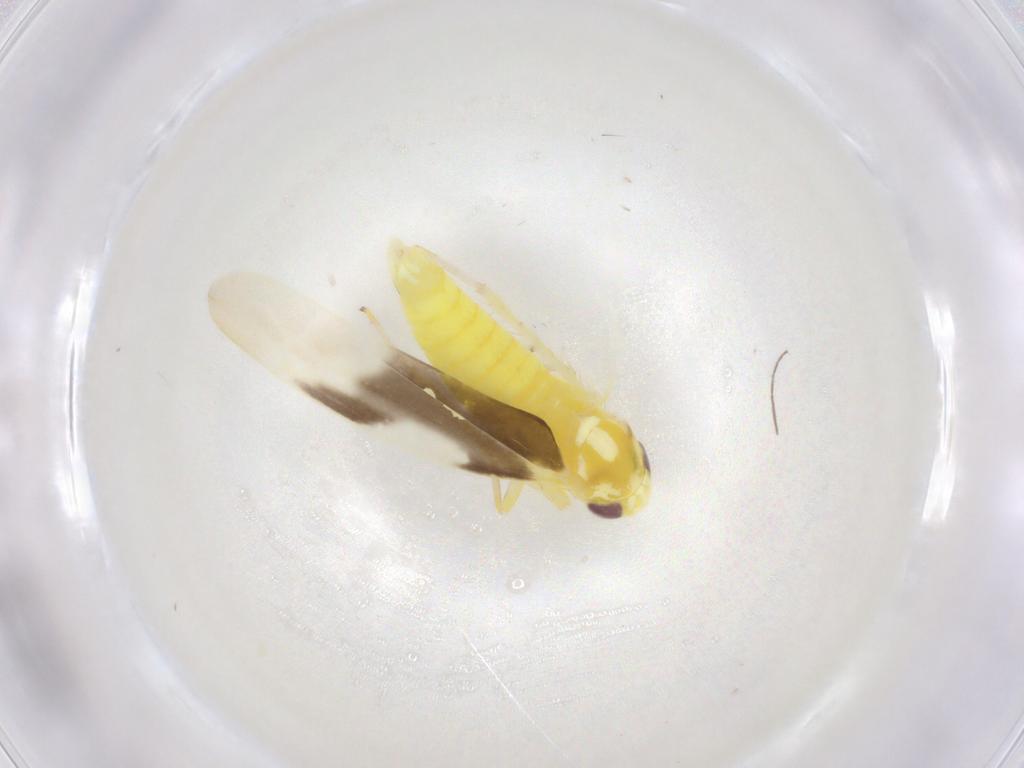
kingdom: Animalia
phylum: Arthropoda
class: Insecta
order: Hemiptera
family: Cicadellidae
